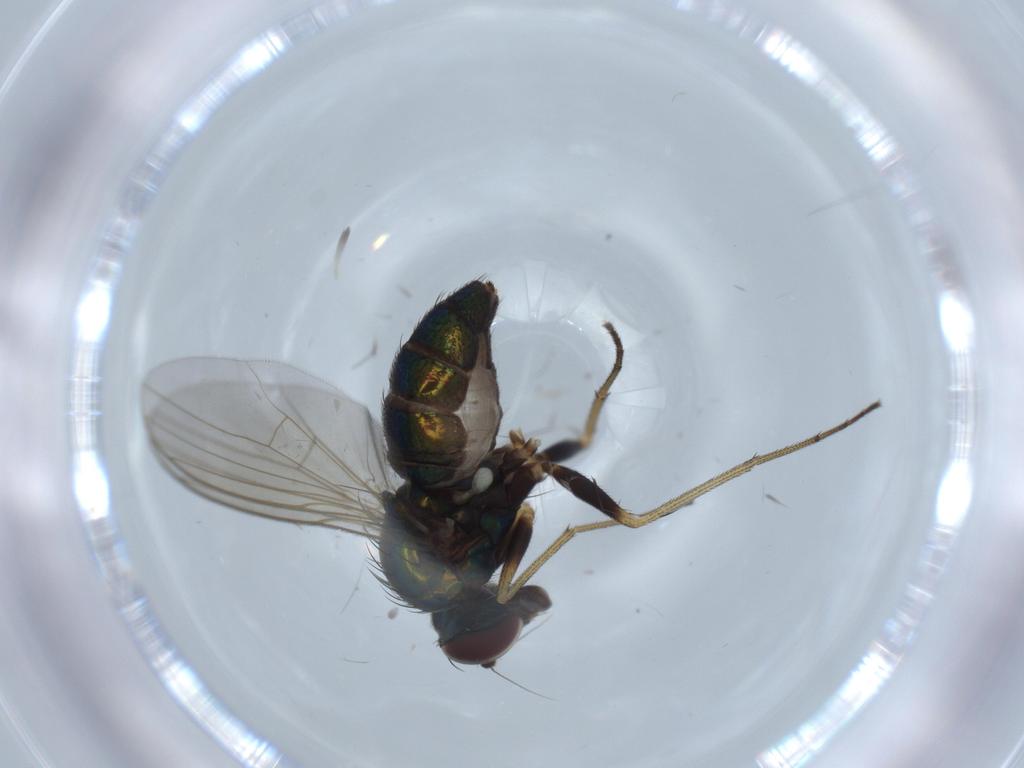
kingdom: Animalia
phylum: Arthropoda
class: Insecta
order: Diptera
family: Dolichopodidae
